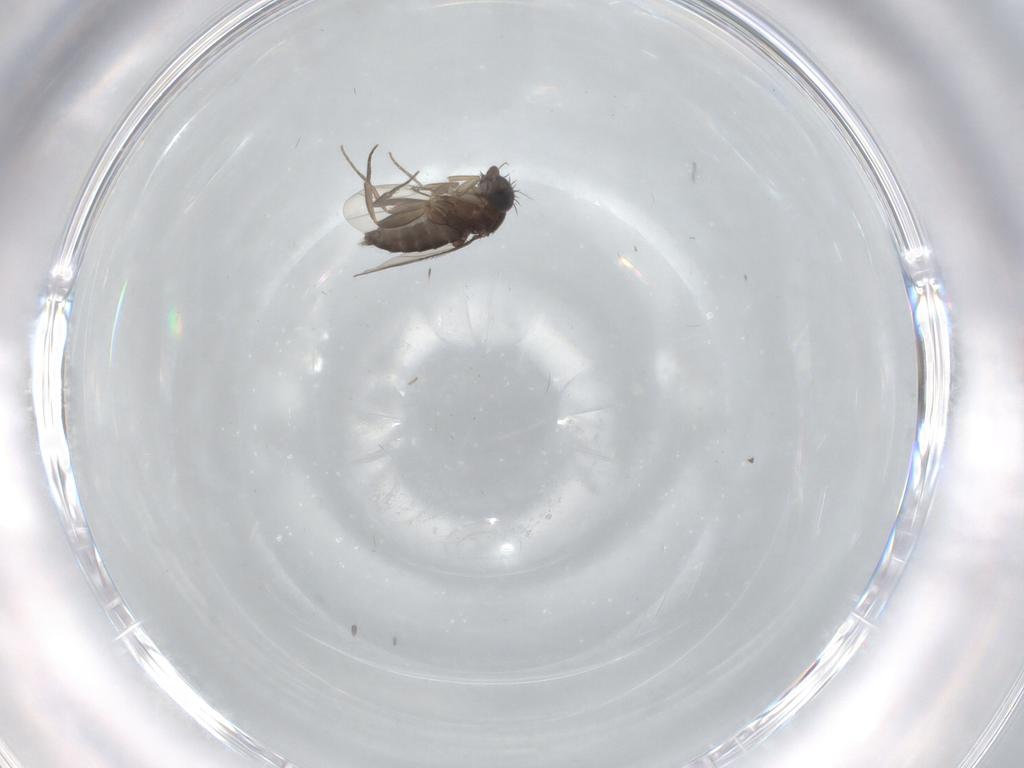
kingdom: Animalia
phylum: Arthropoda
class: Insecta
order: Diptera
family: Phoridae
